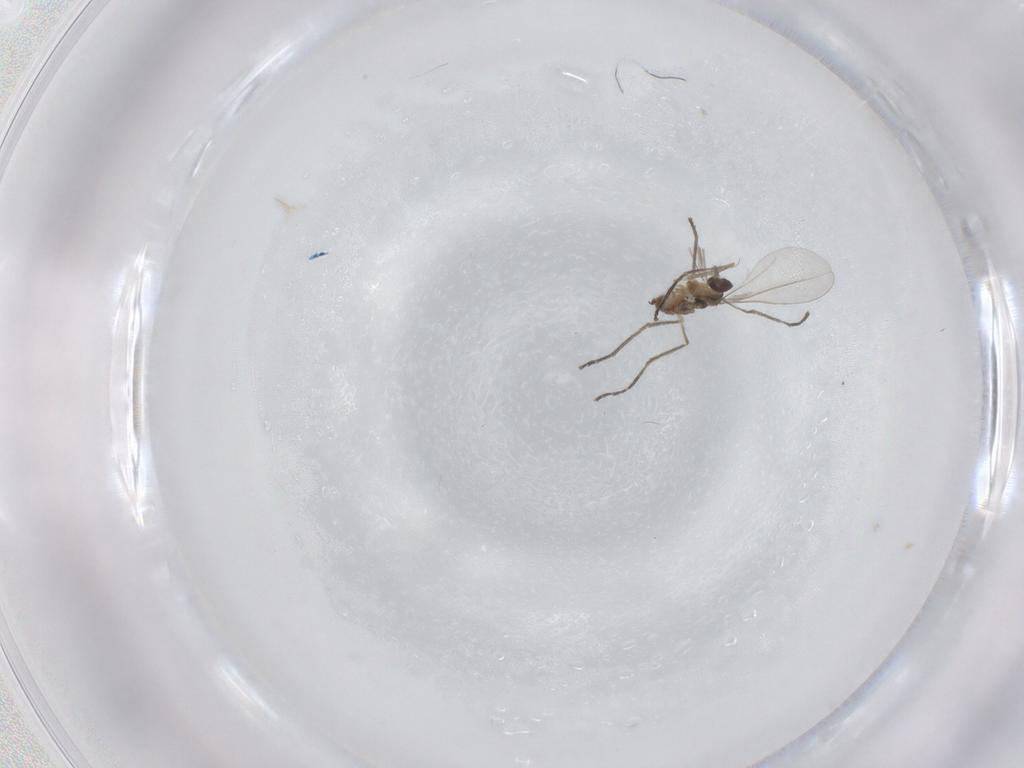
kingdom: Animalia
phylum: Arthropoda
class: Insecta
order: Diptera
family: Cecidomyiidae
